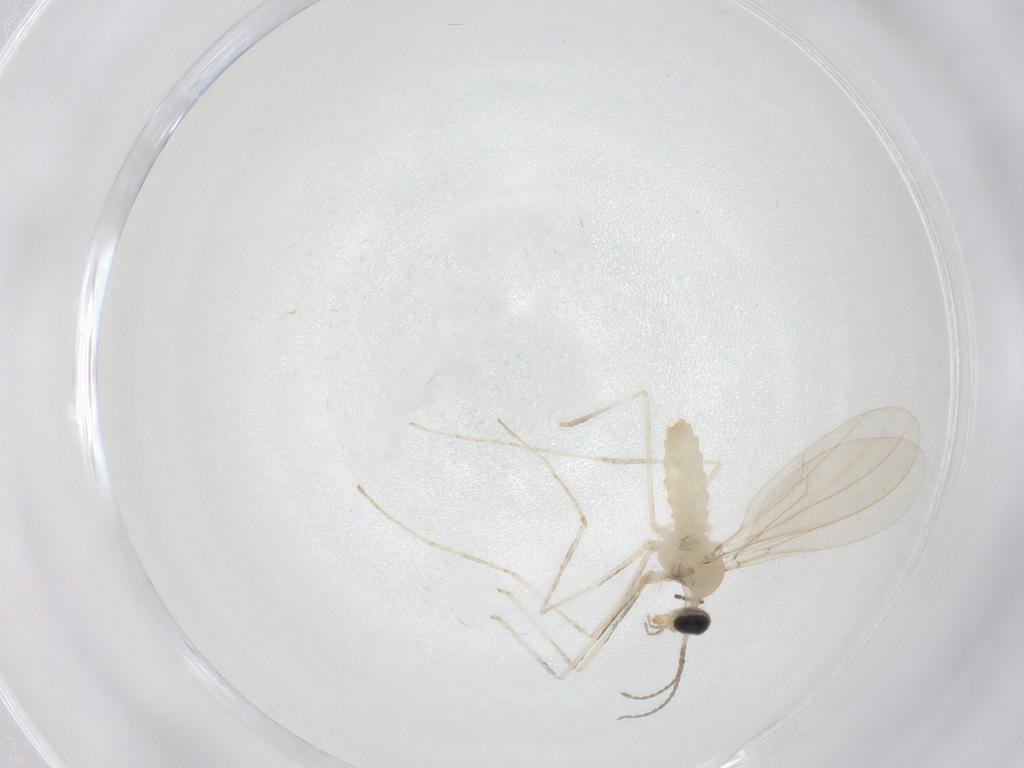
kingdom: Animalia
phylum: Arthropoda
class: Insecta
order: Diptera
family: Cecidomyiidae
